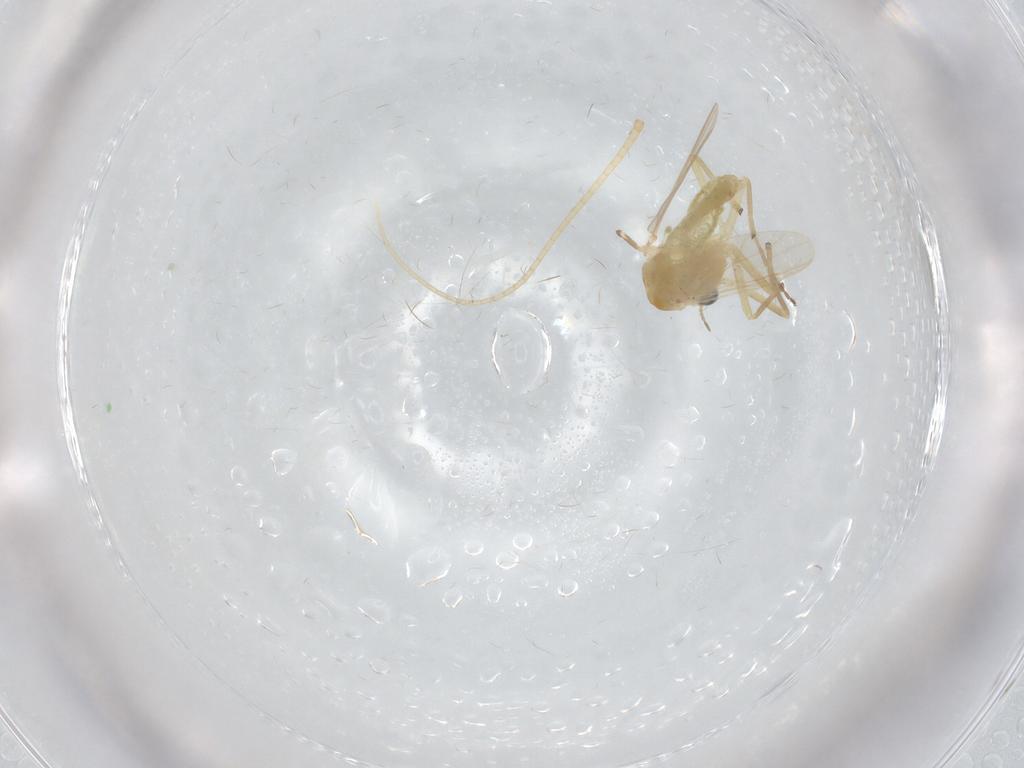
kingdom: Animalia
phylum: Arthropoda
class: Insecta
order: Diptera
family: Chironomidae
